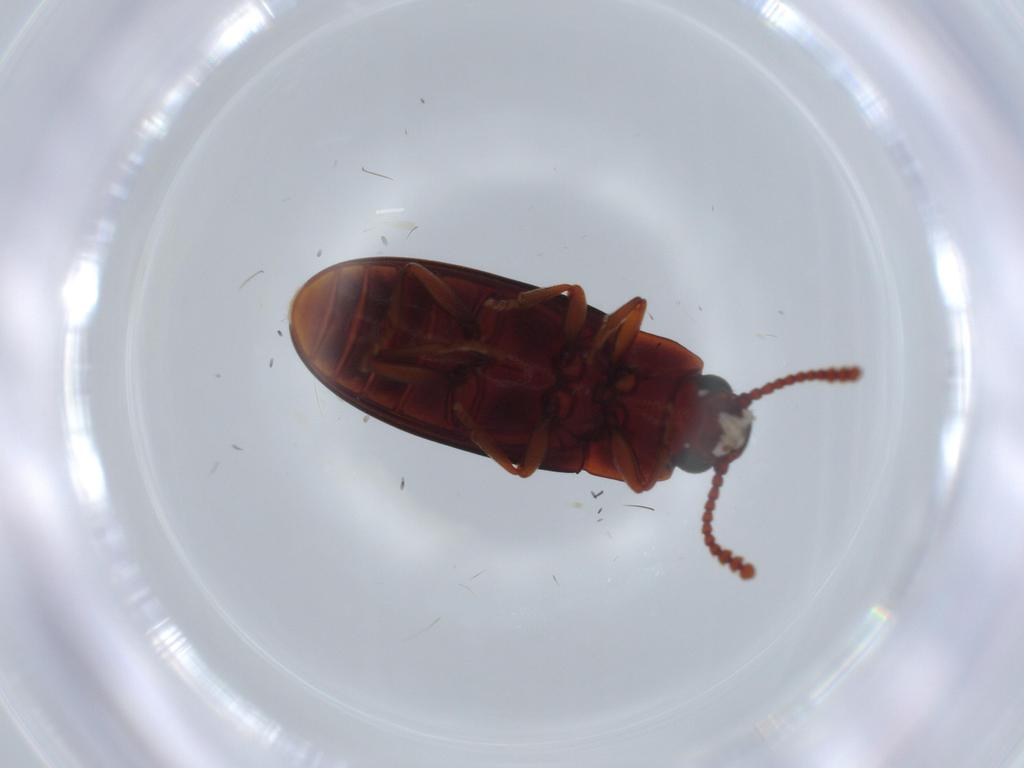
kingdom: Animalia
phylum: Arthropoda
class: Insecta
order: Coleoptera
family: Erotylidae
